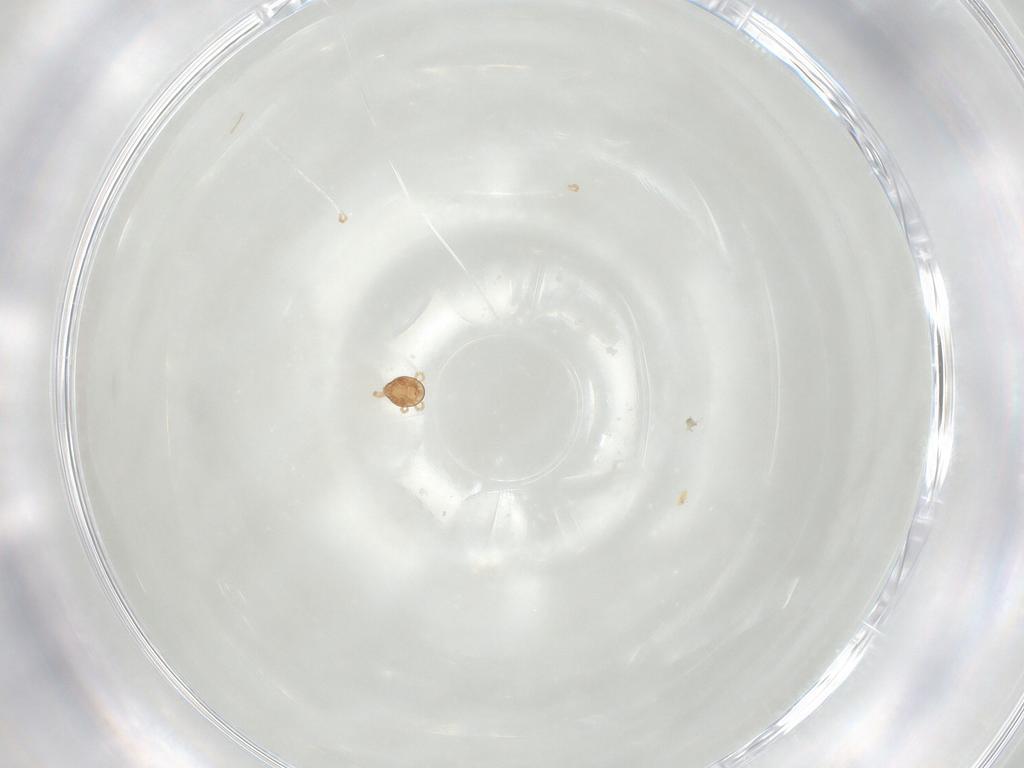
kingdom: Animalia
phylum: Arthropoda
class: Arachnida
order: Mesostigmata
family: Phytoseiidae
